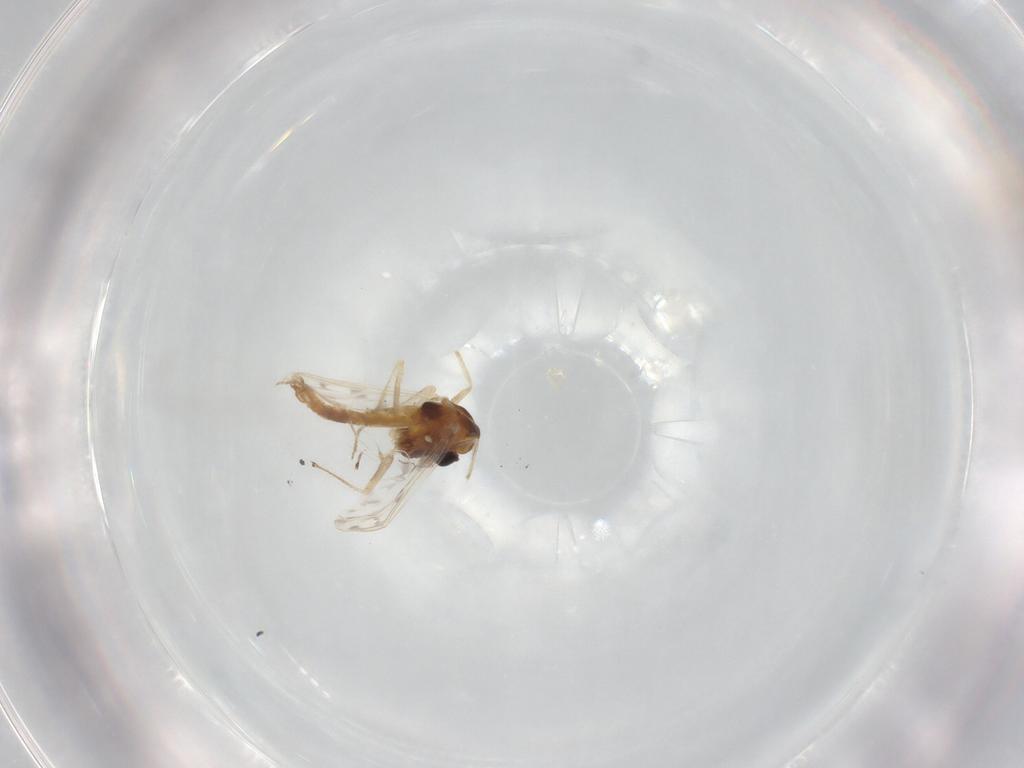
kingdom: Animalia
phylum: Arthropoda
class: Insecta
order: Diptera
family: Chironomidae
